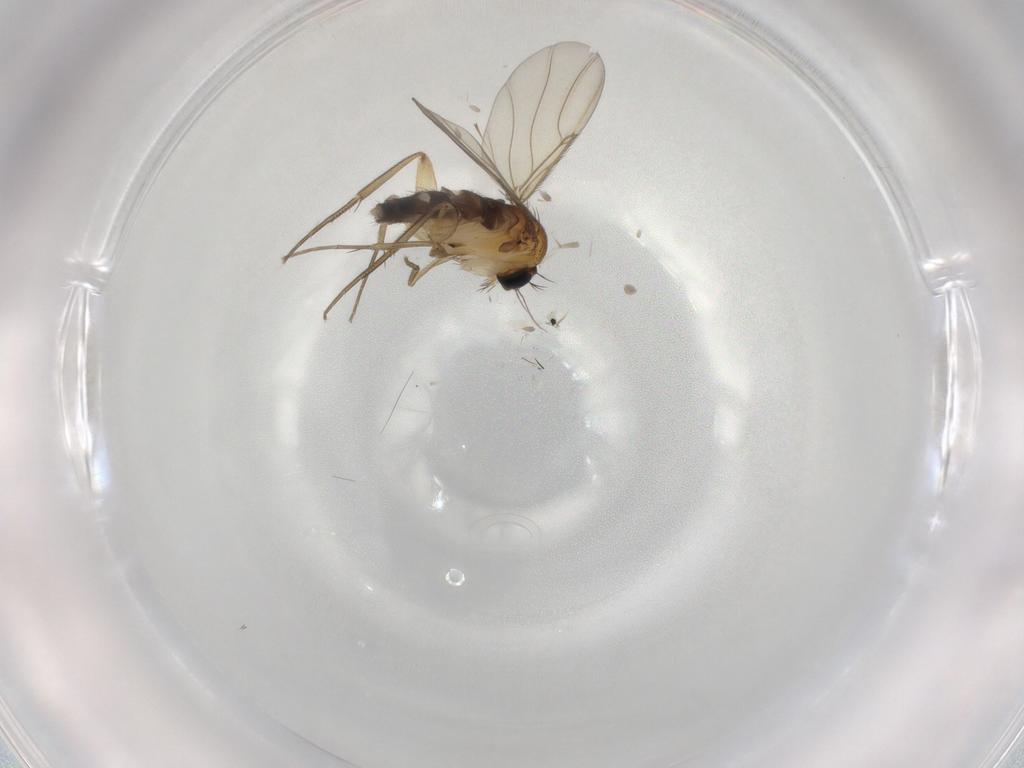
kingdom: Animalia
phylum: Arthropoda
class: Insecta
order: Diptera
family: Phoridae
